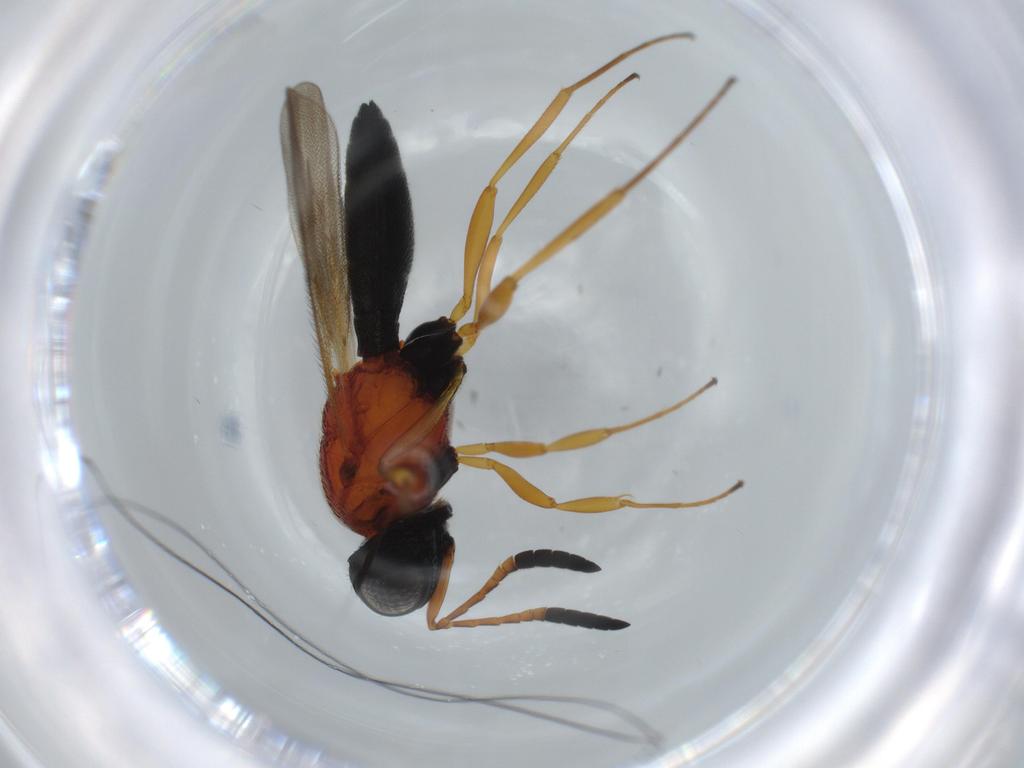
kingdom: Animalia
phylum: Arthropoda
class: Insecta
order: Hymenoptera
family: Scelionidae
